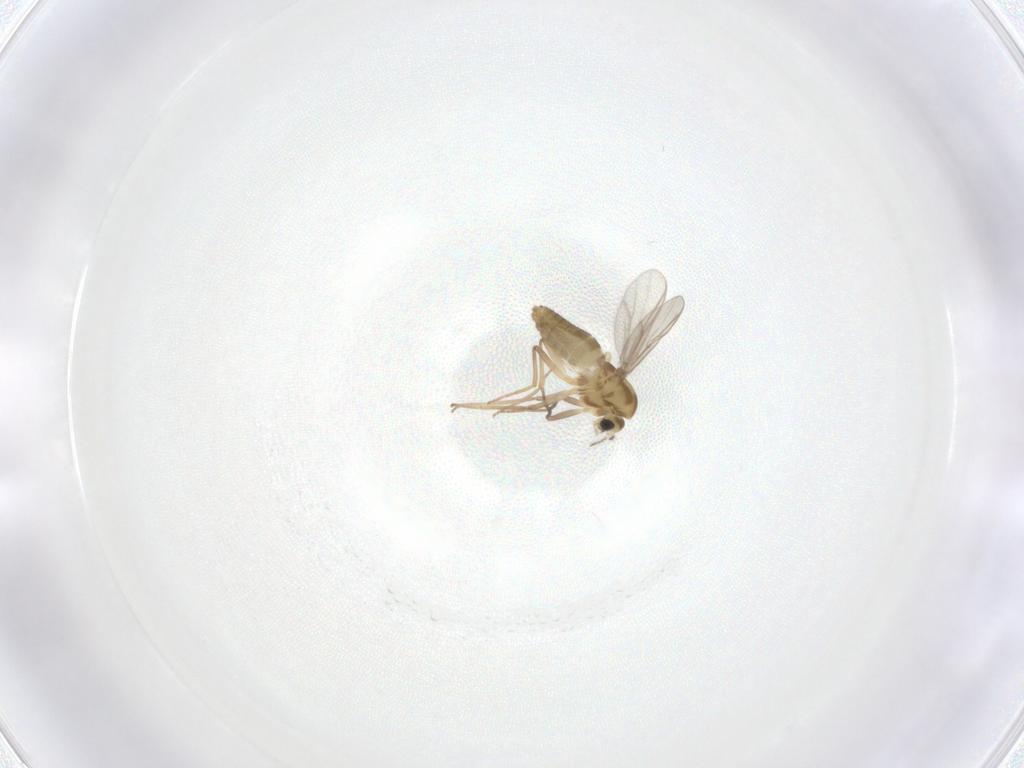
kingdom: Animalia
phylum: Arthropoda
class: Insecta
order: Diptera
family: Chironomidae
